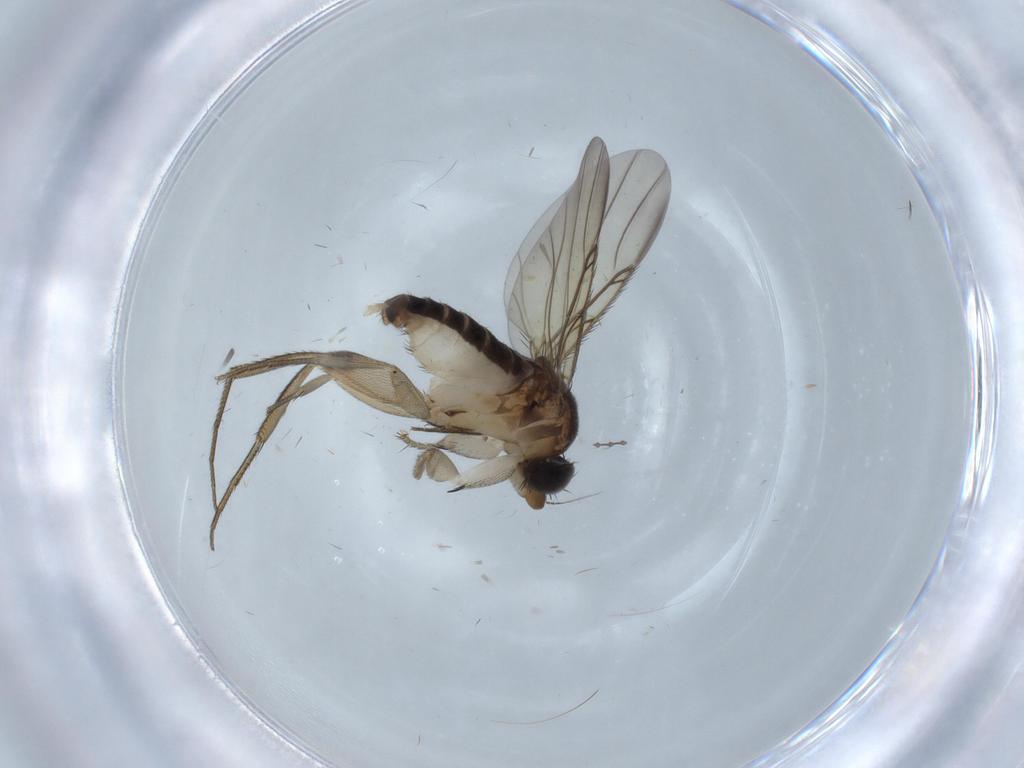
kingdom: Animalia
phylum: Arthropoda
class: Insecta
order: Diptera
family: Phoridae
